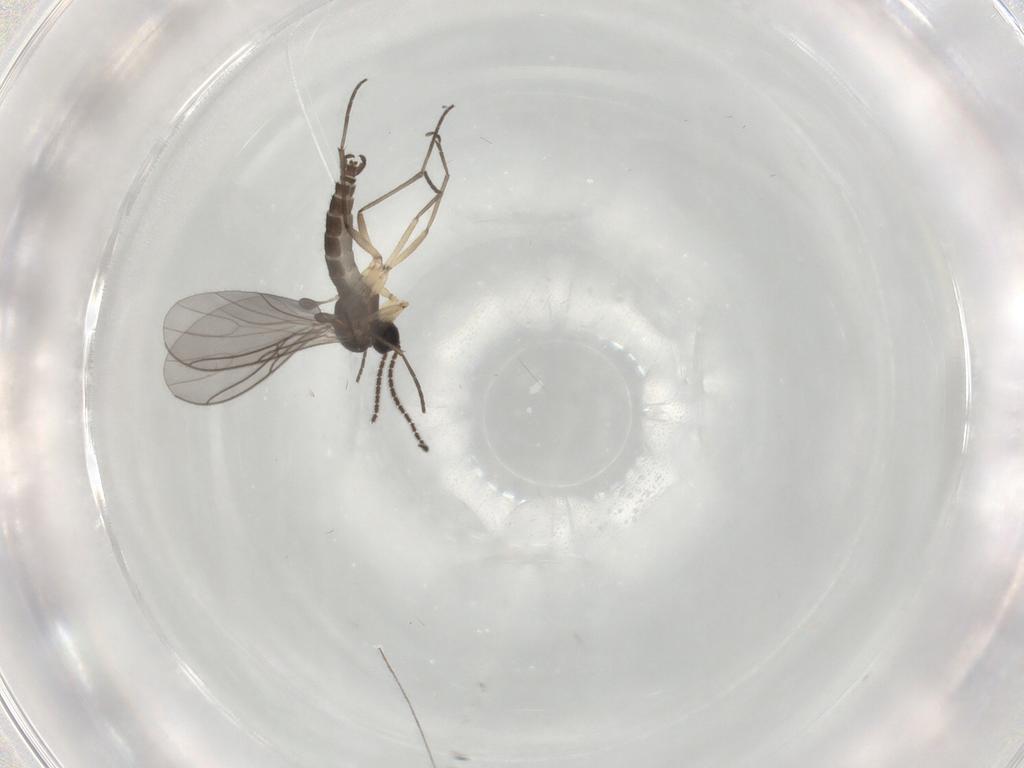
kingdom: Animalia
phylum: Arthropoda
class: Insecta
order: Diptera
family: Sciaridae
